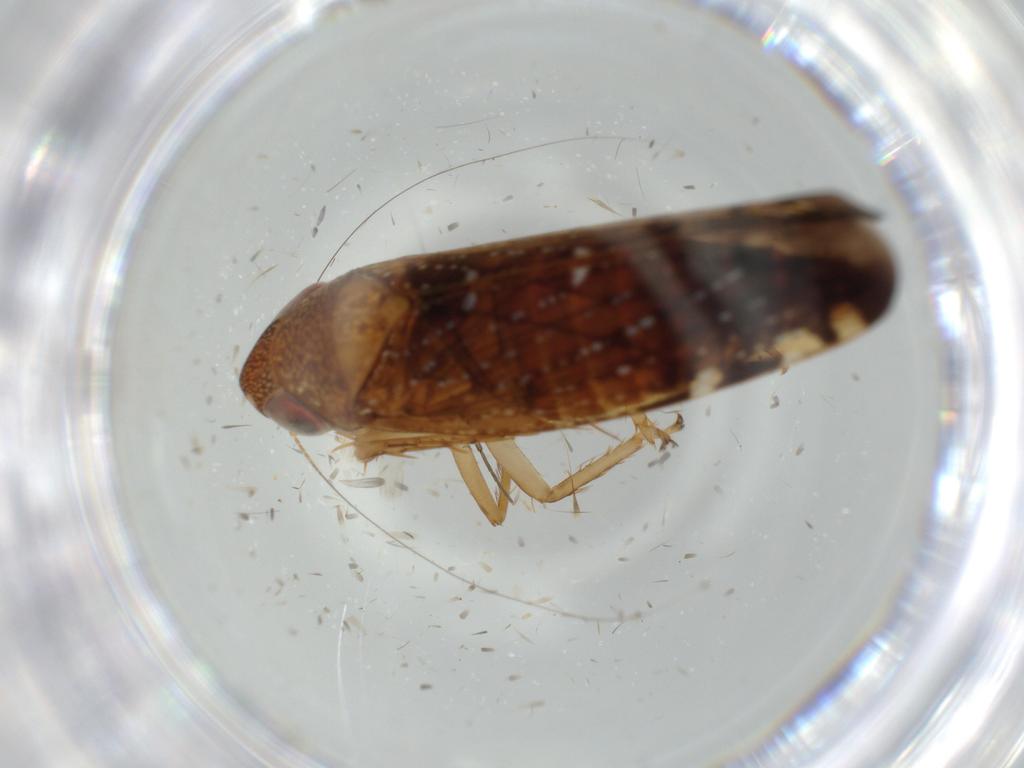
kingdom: Animalia
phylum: Arthropoda
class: Insecta
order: Hemiptera
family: Cicadellidae
